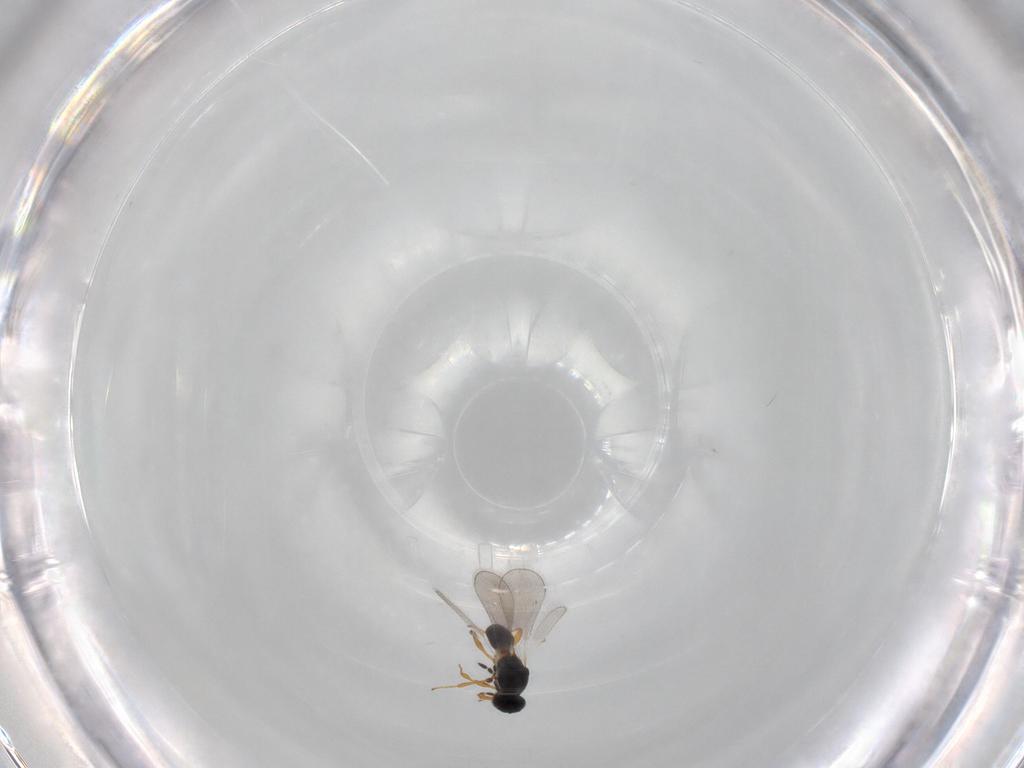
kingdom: Animalia
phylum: Arthropoda
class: Insecta
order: Hymenoptera
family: Platygastridae
